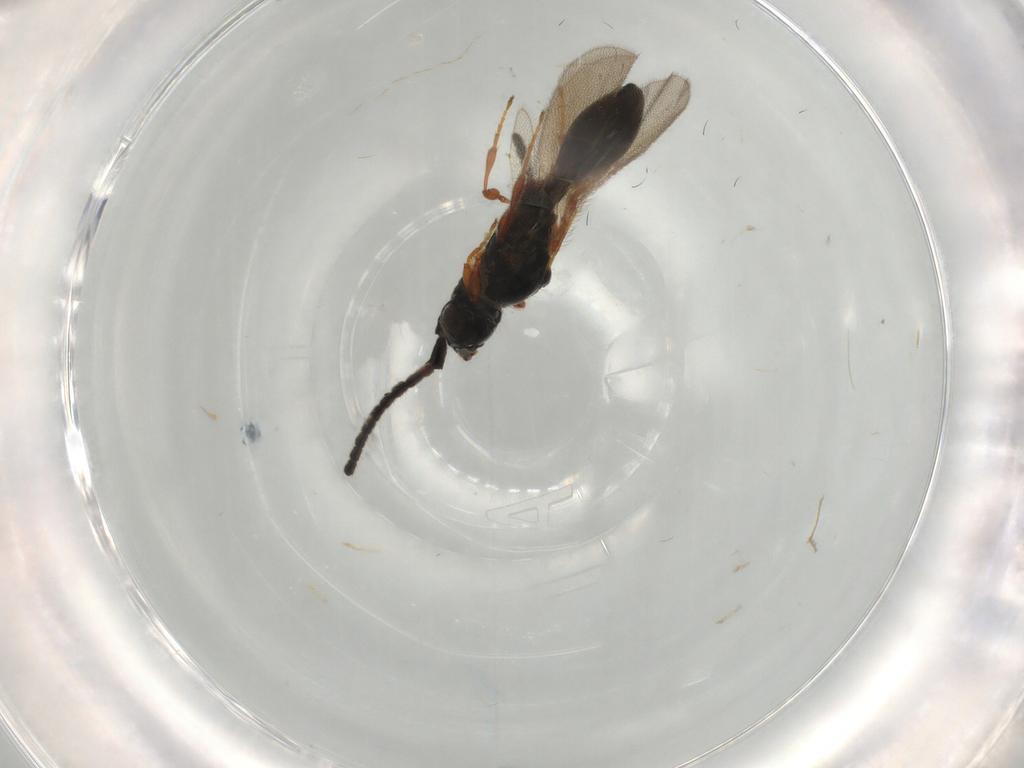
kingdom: Animalia
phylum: Arthropoda
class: Insecta
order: Hymenoptera
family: Diapriidae
